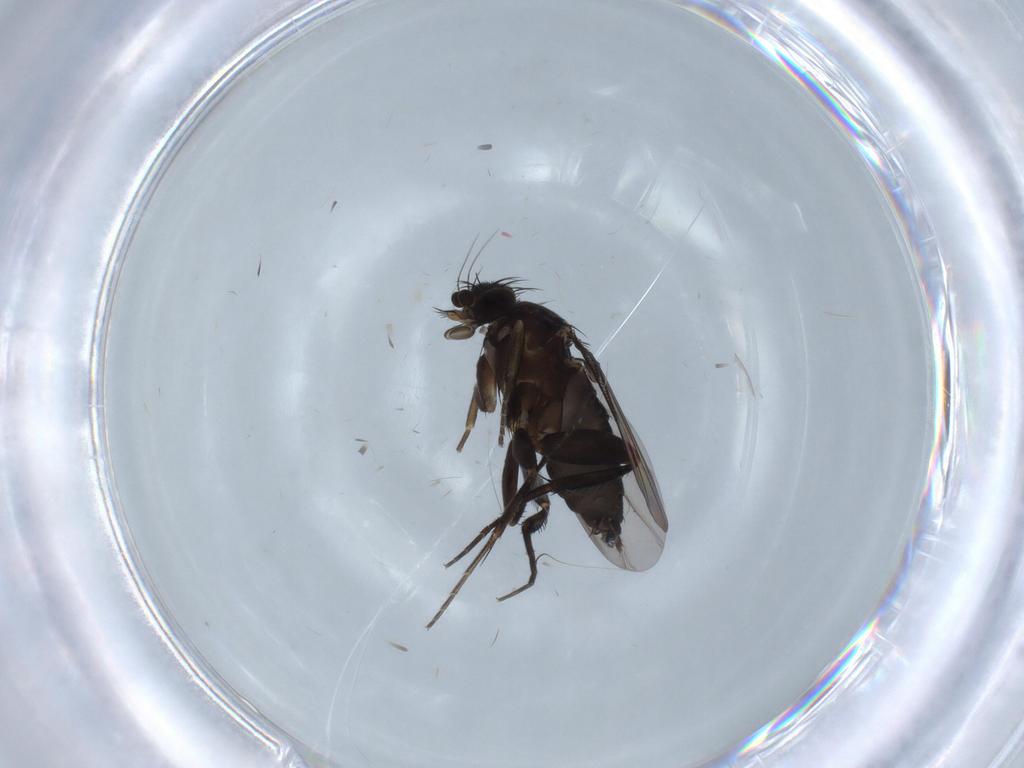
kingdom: Animalia
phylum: Arthropoda
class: Insecta
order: Diptera
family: Phoridae
